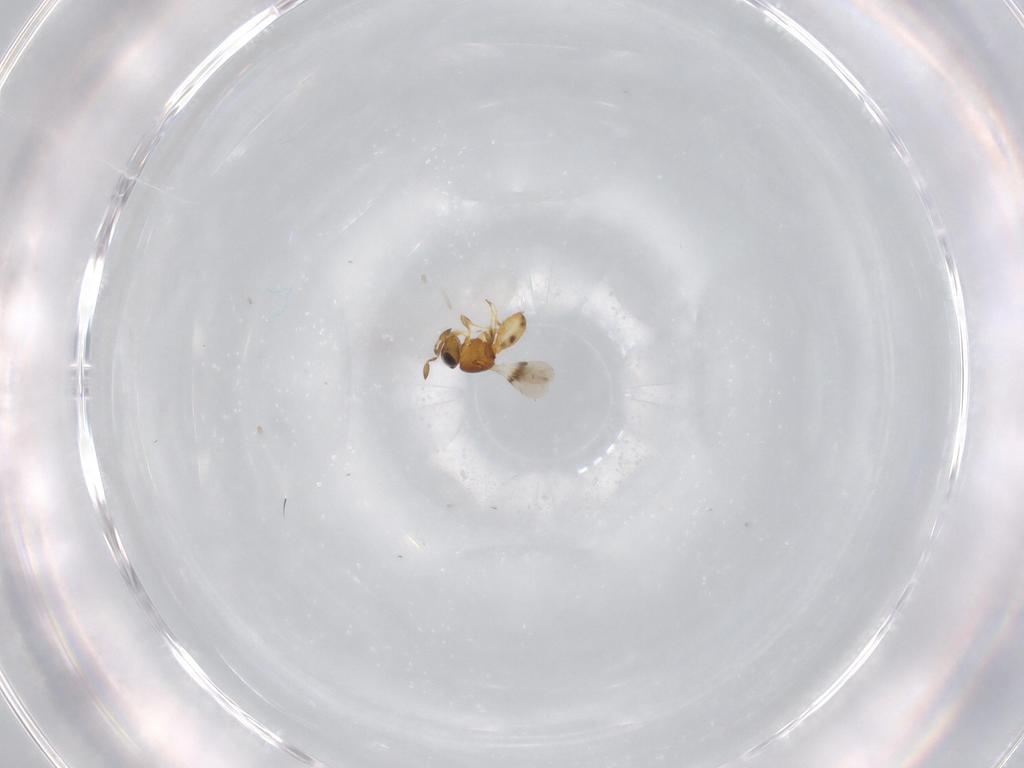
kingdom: Animalia
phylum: Arthropoda
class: Insecta
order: Hymenoptera
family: Scelionidae
